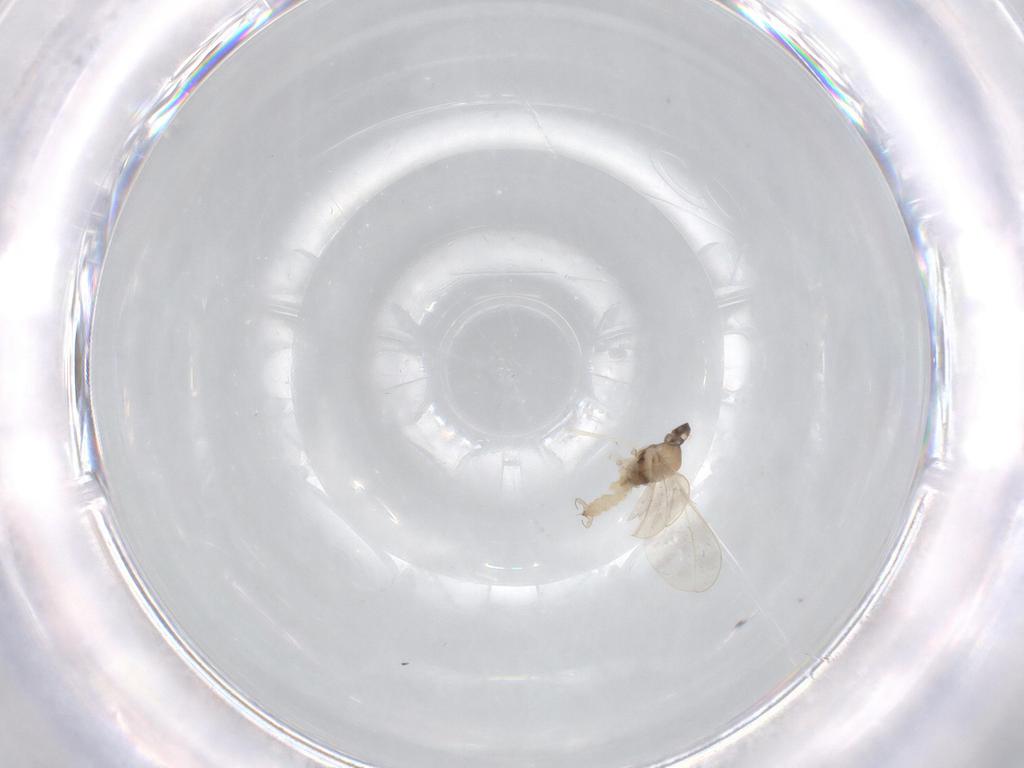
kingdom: Animalia
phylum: Arthropoda
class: Insecta
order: Diptera
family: Cecidomyiidae
